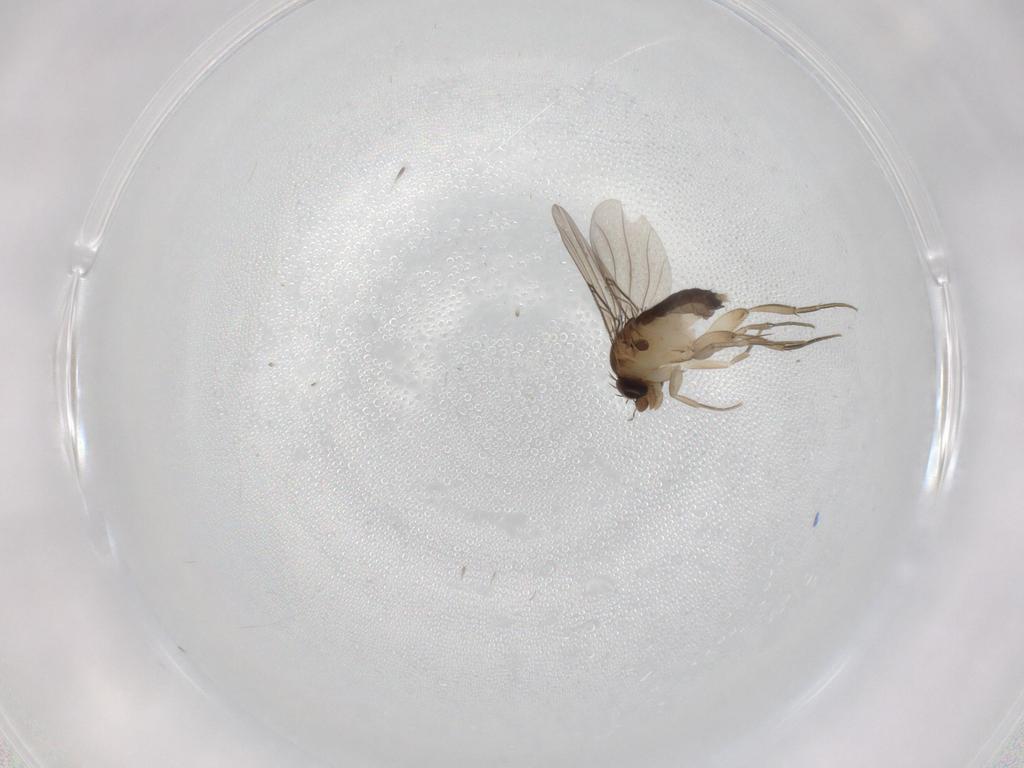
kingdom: Animalia
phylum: Arthropoda
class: Insecta
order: Diptera
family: Phoridae
